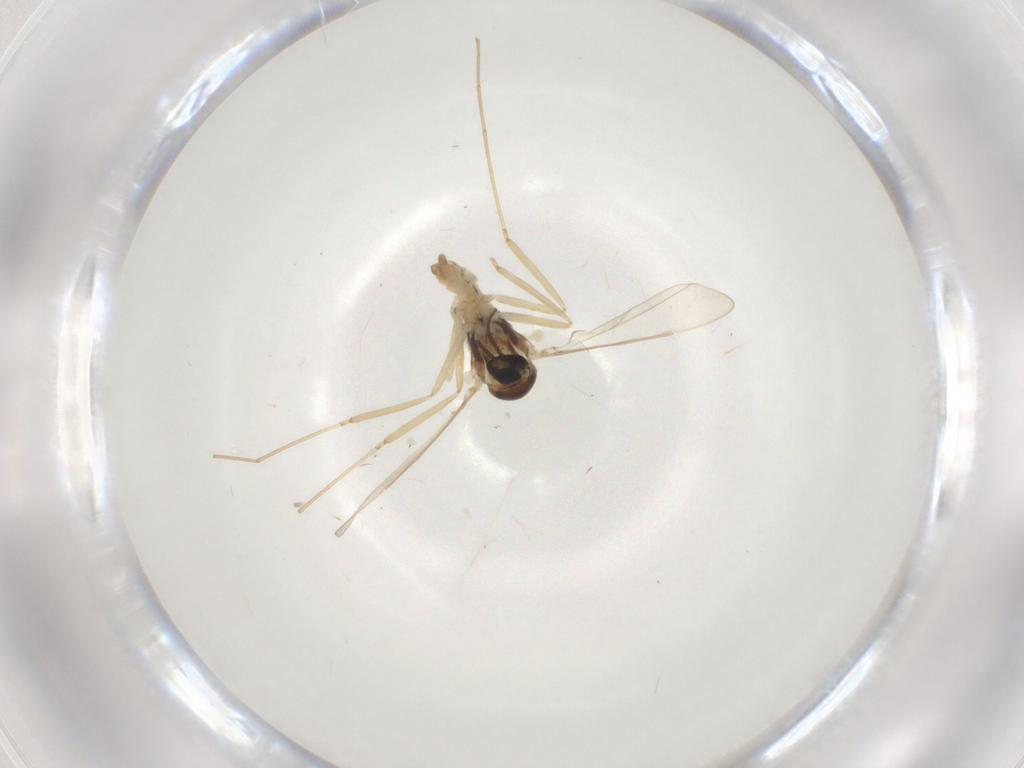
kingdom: Animalia
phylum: Arthropoda
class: Insecta
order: Diptera
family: Cecidomyiidae
